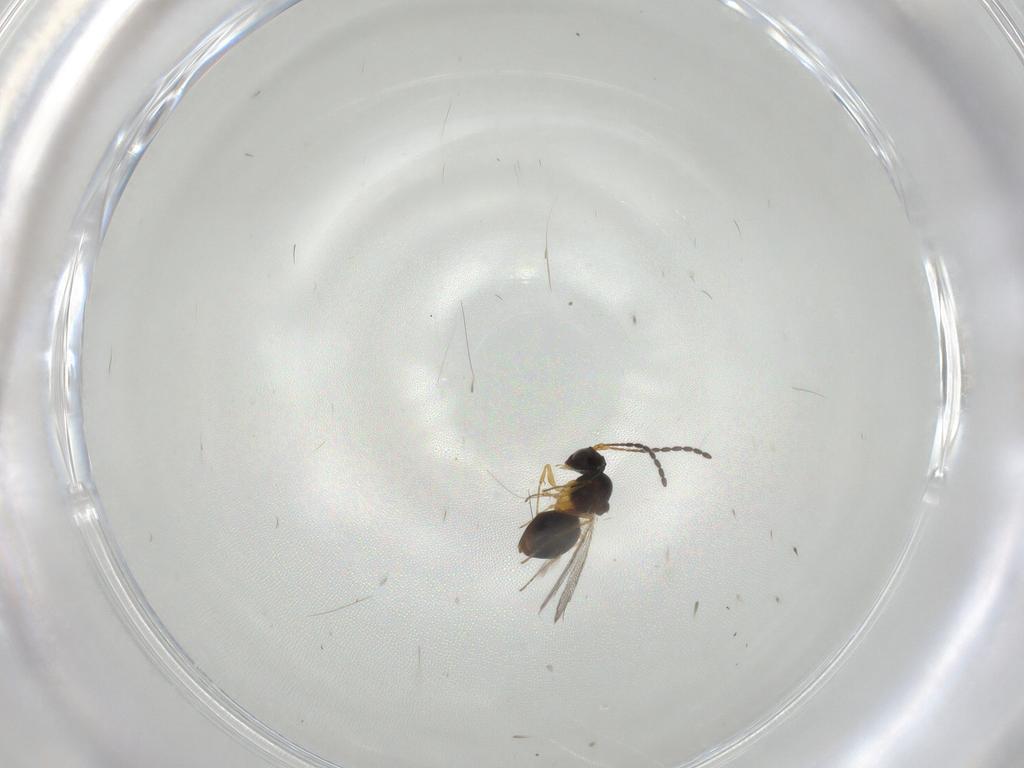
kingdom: Animalia
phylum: Arthropoda
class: Insecta
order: Hymenoptera
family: Figitidae
